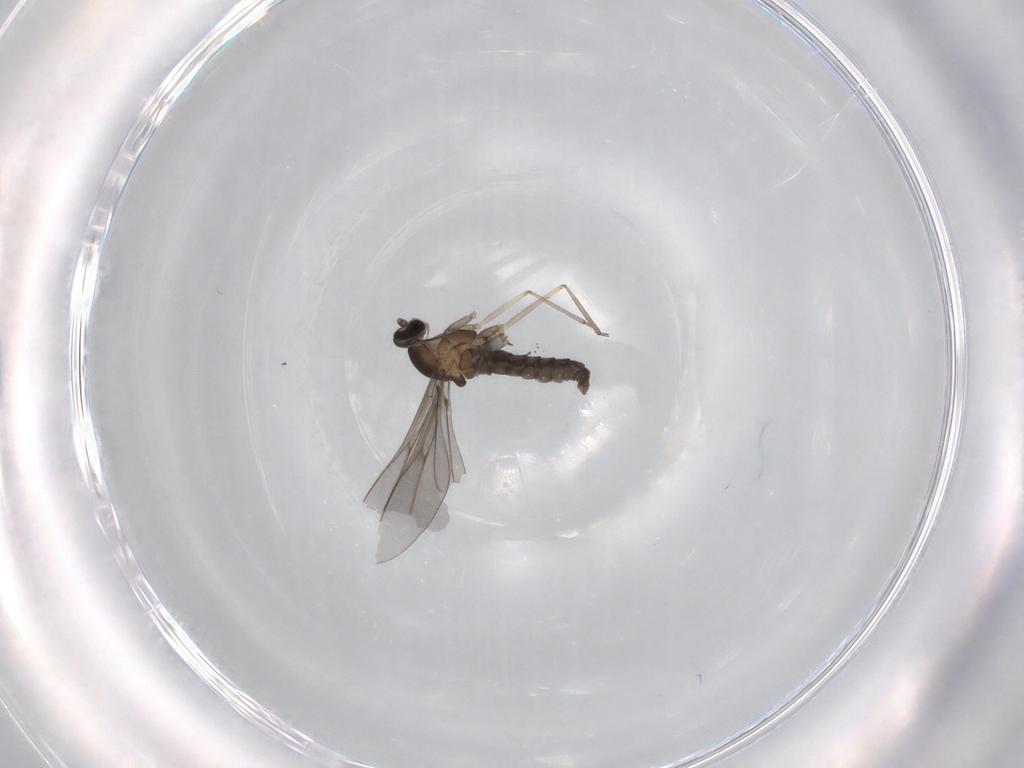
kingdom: Animalia
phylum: Arthropoda
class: Insecta
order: Diptera
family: Cecidomyiidae
